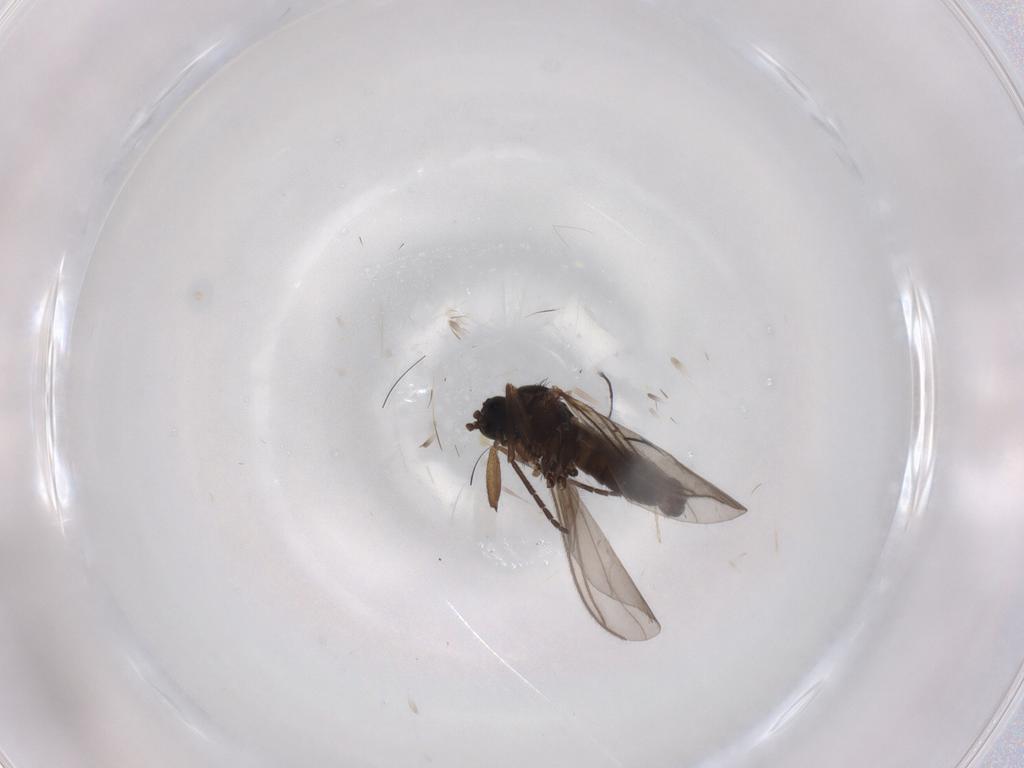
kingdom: Animalia
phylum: Arthropoda
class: Insecta
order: Diptera
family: Sciaridae
